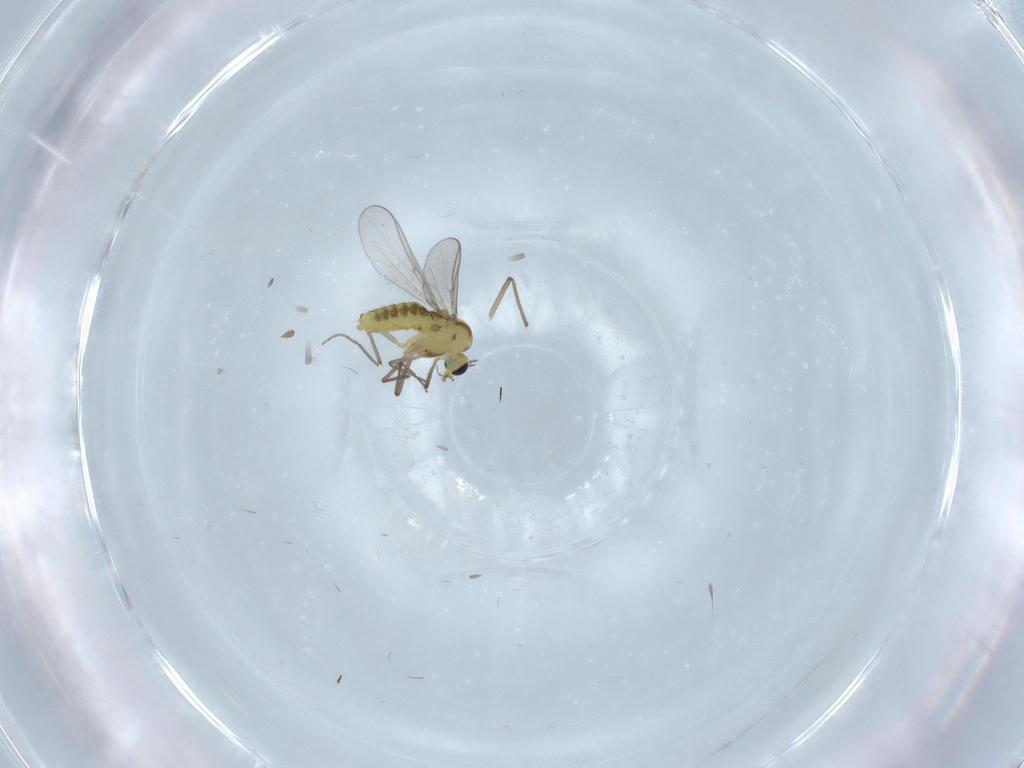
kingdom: Animalia
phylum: Arthropoda
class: Insecta
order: Diptera
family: Chironomidae
